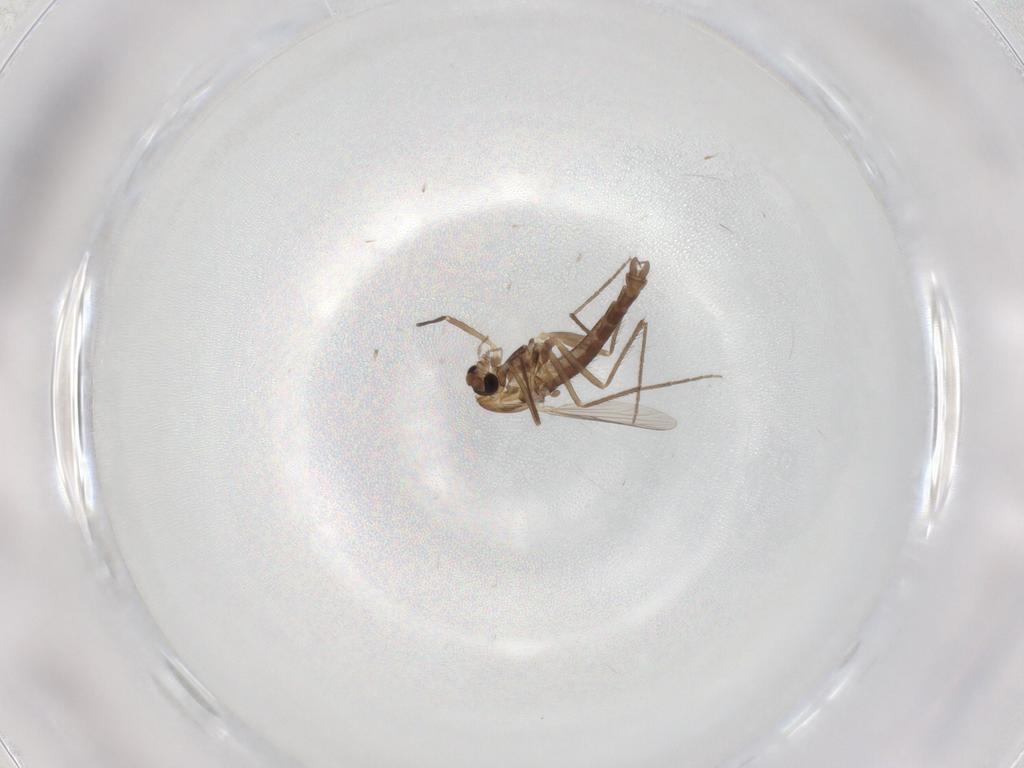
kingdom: Animalia
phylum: Arthropoda
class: Insecta
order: Diptera
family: Chironomidae
